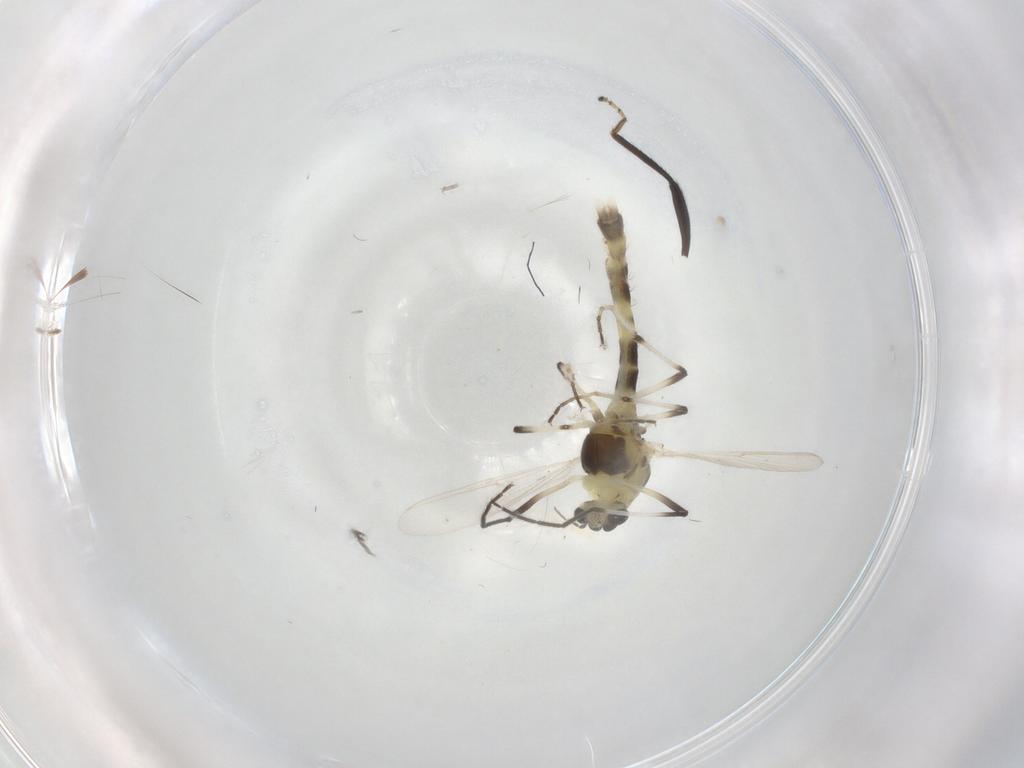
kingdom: Animalia
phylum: Arthropoda
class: Insecta
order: Diptera
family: Chironomidae
